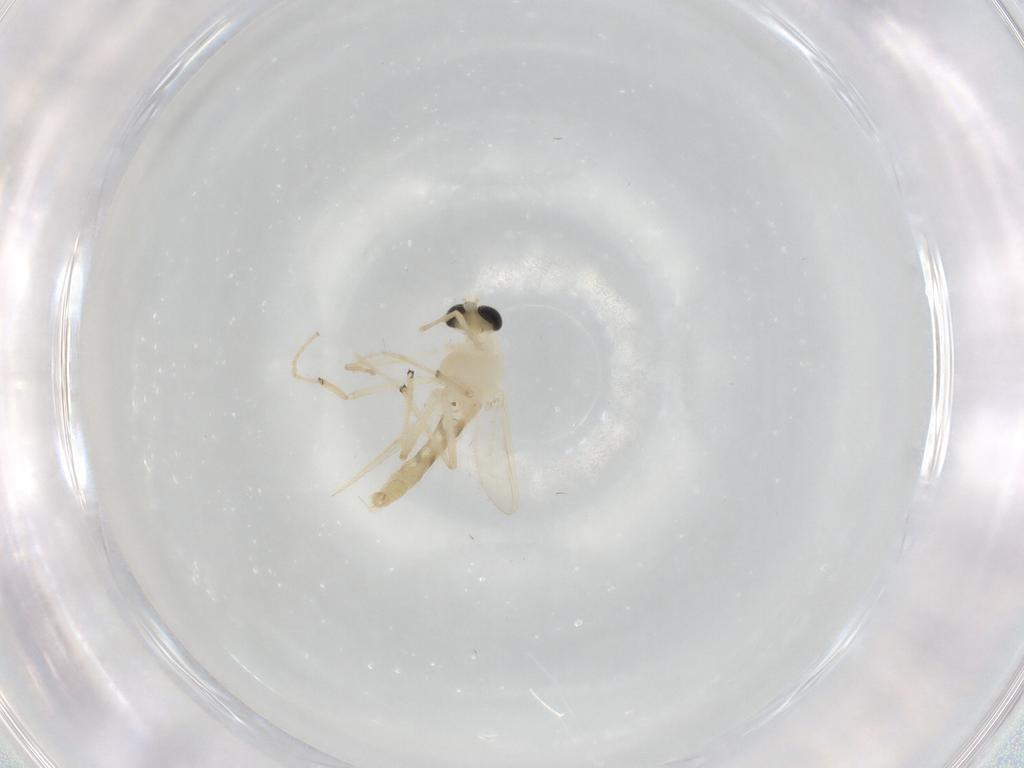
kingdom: Animalia
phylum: Arthropoda
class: Insecta
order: Diptera
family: Chironomidae
